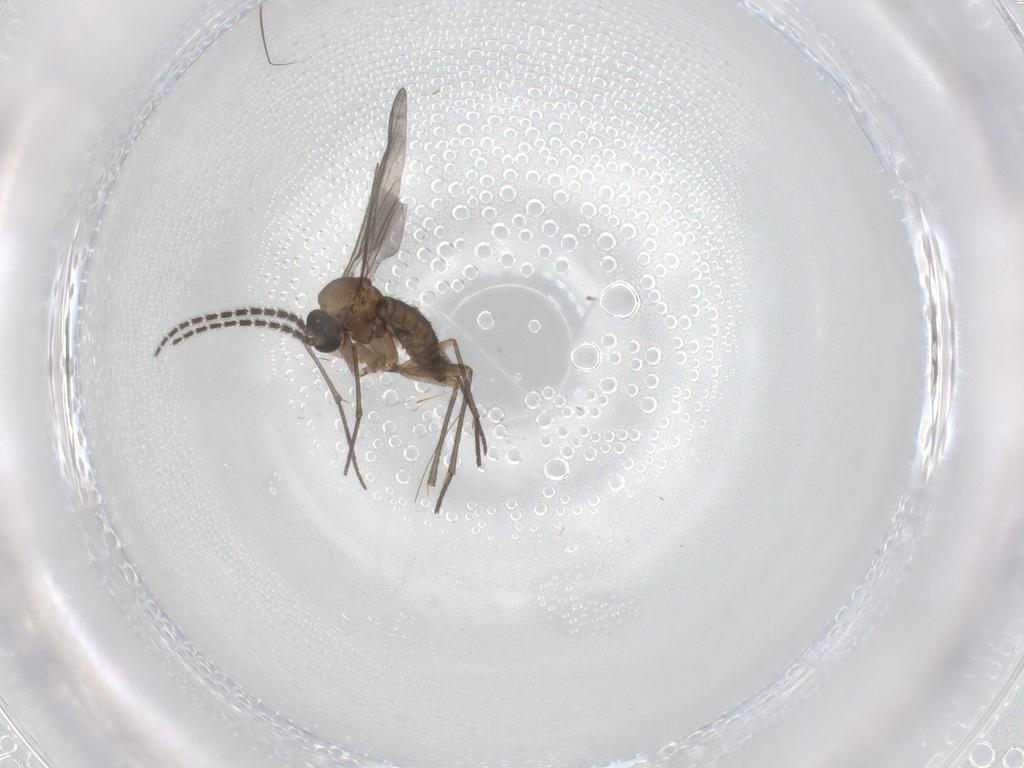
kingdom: Animalia
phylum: Arthropoda
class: Insecta
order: Diptera
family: Sciaridae
